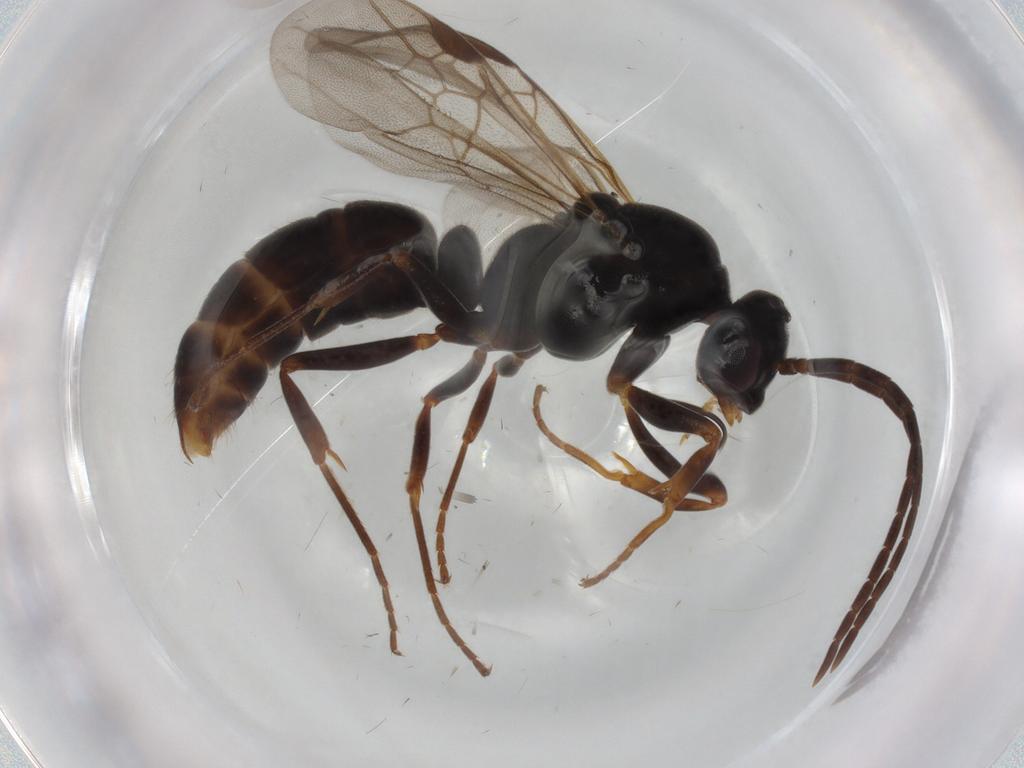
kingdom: Animalia
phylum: Arthropoda
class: Insecta
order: Hymenoptera
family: Formicidae
